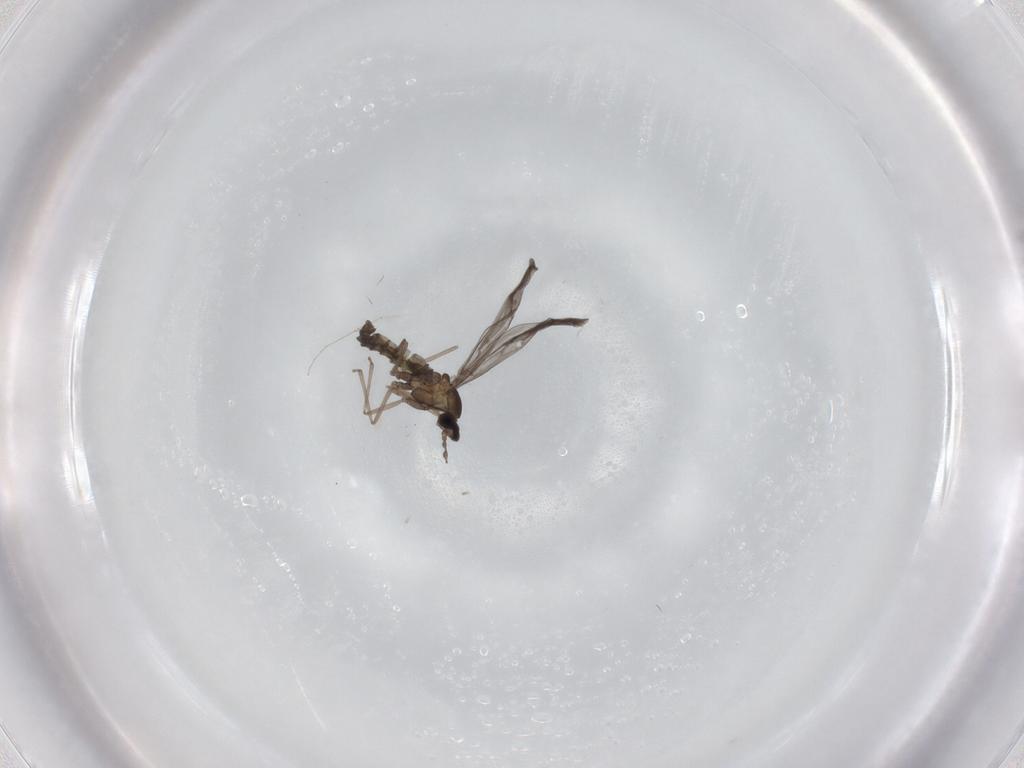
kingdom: Animalia
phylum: Arthropoda
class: Insecta
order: Diptera
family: Cecidomyiidae
